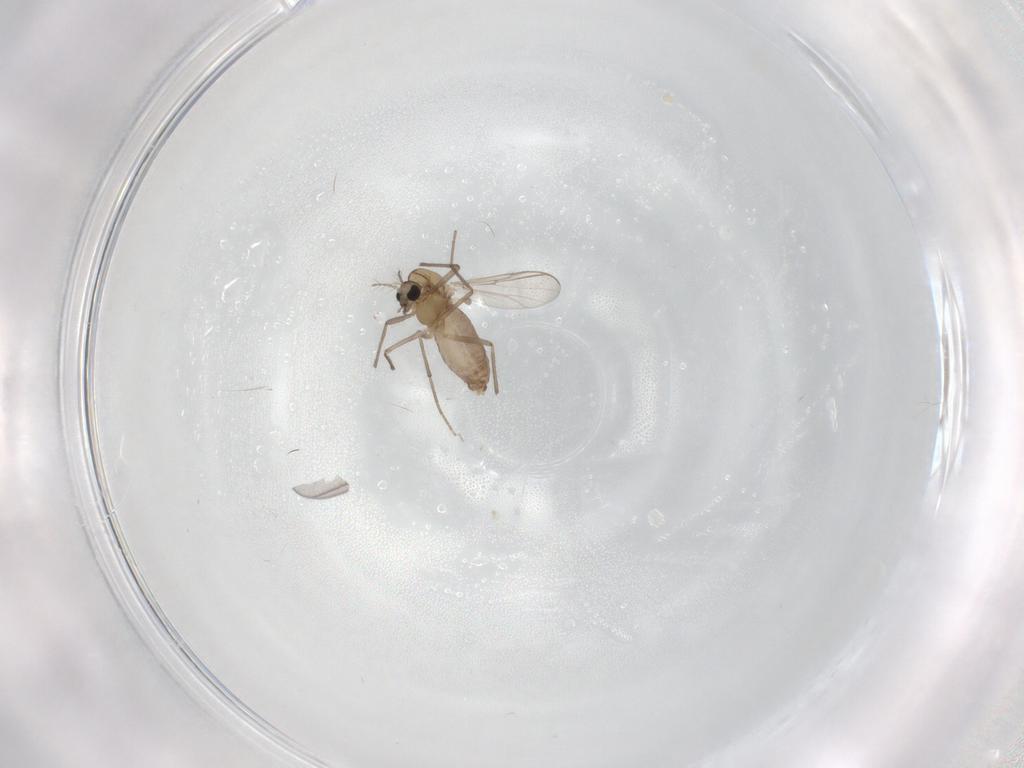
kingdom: Animalia
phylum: Arthropoda
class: Insecta
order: Diptera
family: Chironomidae
